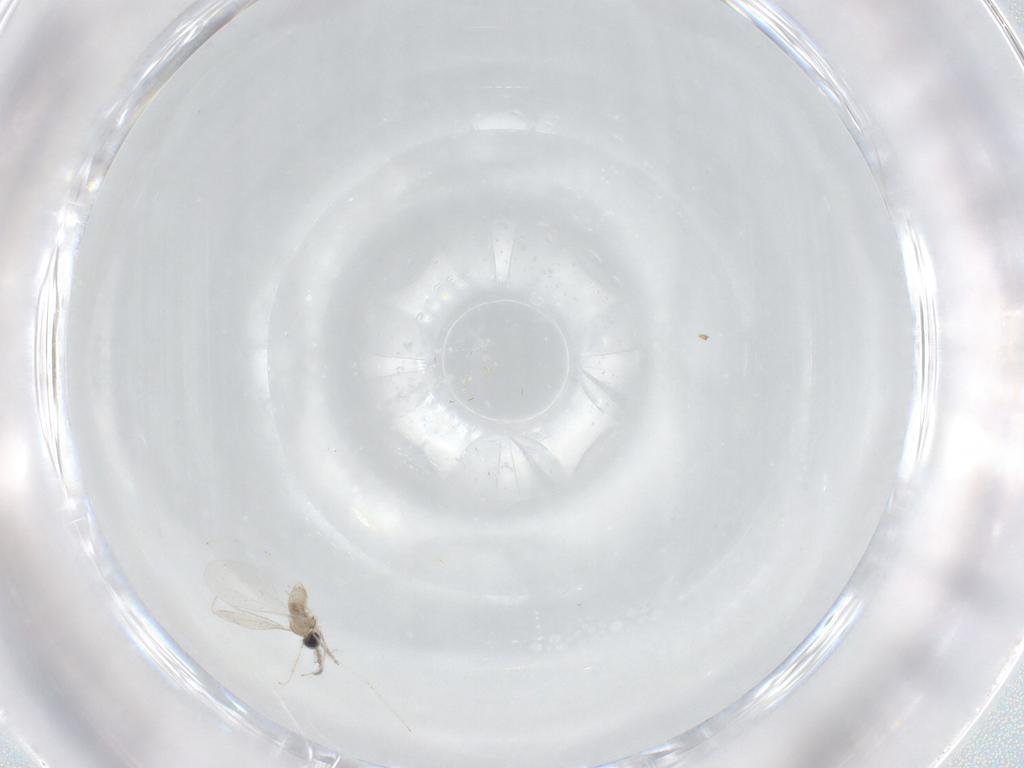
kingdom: Animalia
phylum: Arthropoda
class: Insecta
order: Diptera
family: Cecidomyiidae
